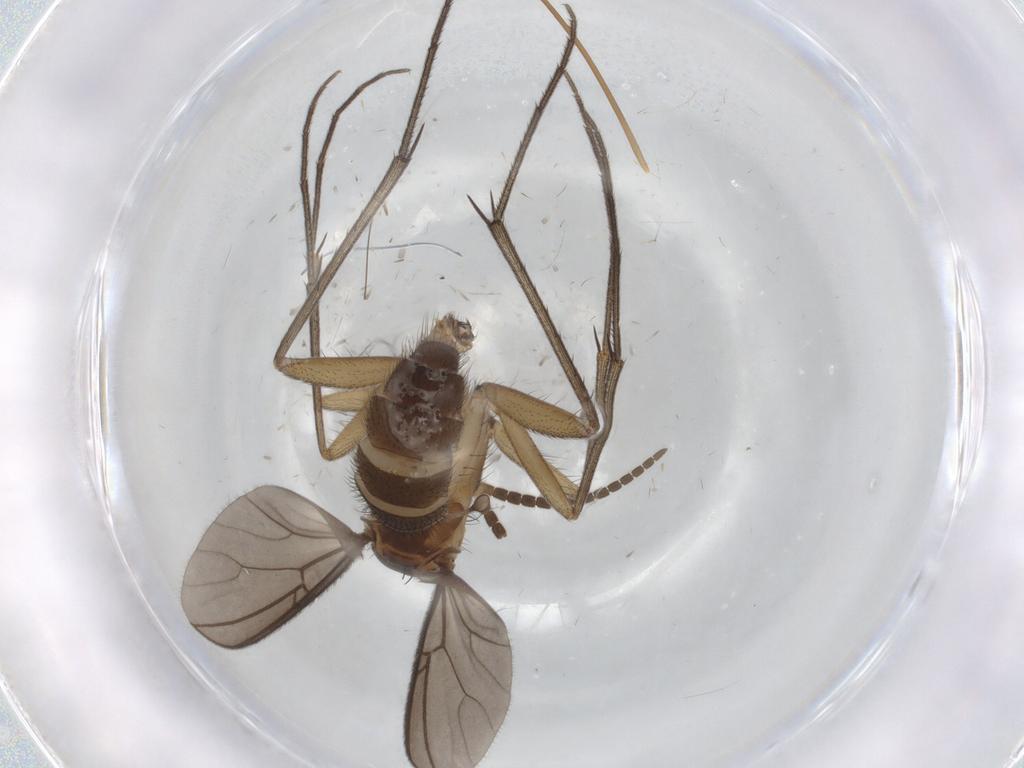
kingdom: Animalia
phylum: Arthropoda
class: Insecta
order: Diptera
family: Mycetophilidae
